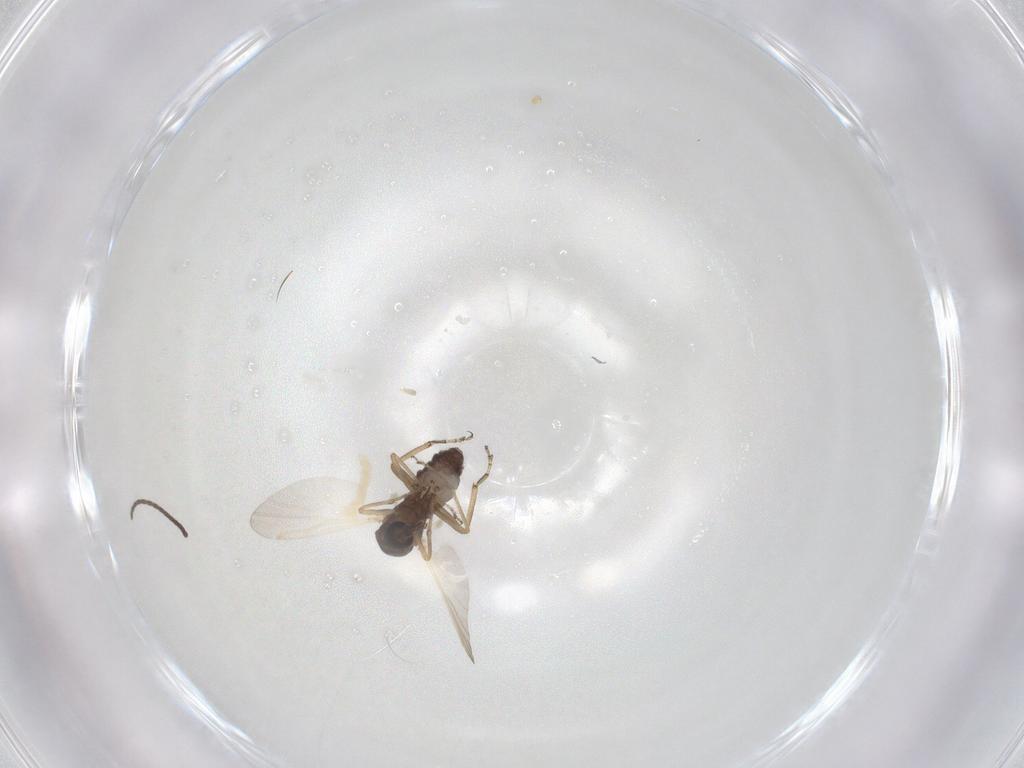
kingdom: Animalia
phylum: Arthropoda
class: Insecta
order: Diptera
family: Ceratopogonidae
